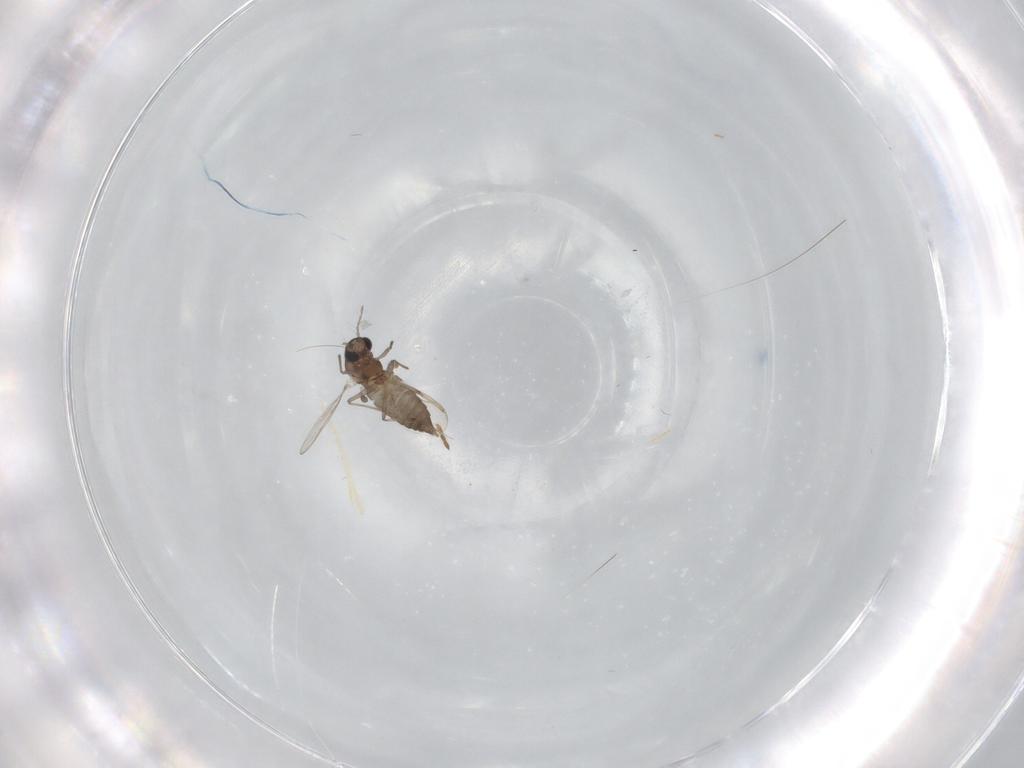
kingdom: Animalia
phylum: Arthropoda
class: Insecta
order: Diptera
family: Chironomidae
